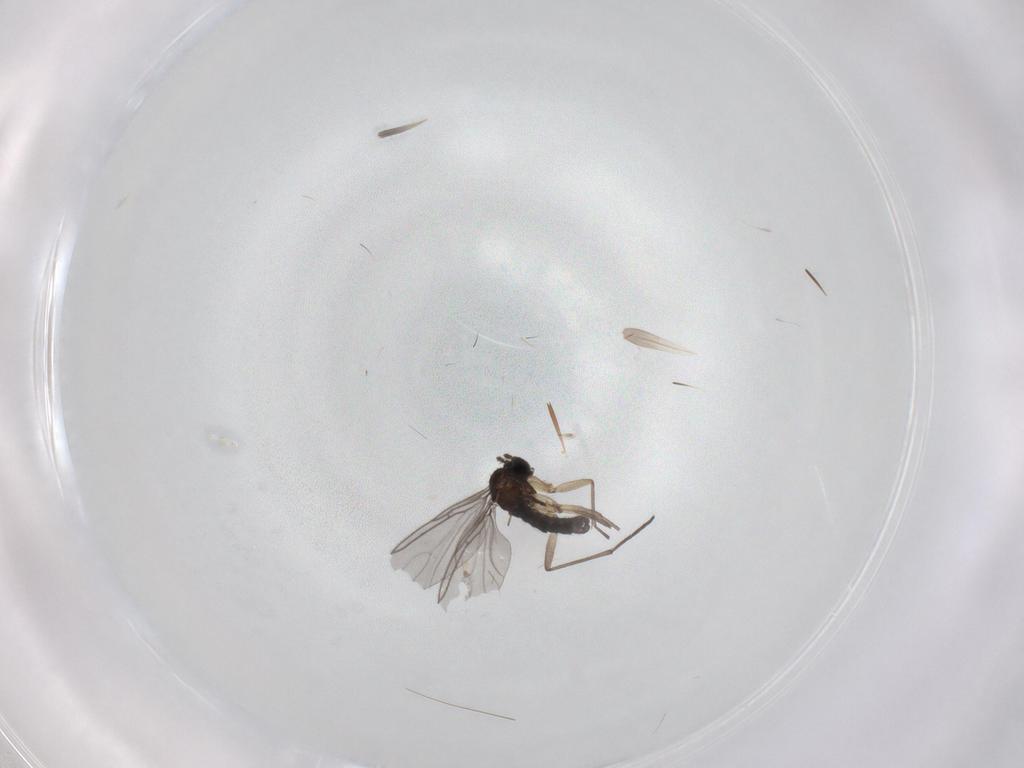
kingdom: Animalia
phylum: Arthropoda
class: Insecta
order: Diptera
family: Sciaridae
